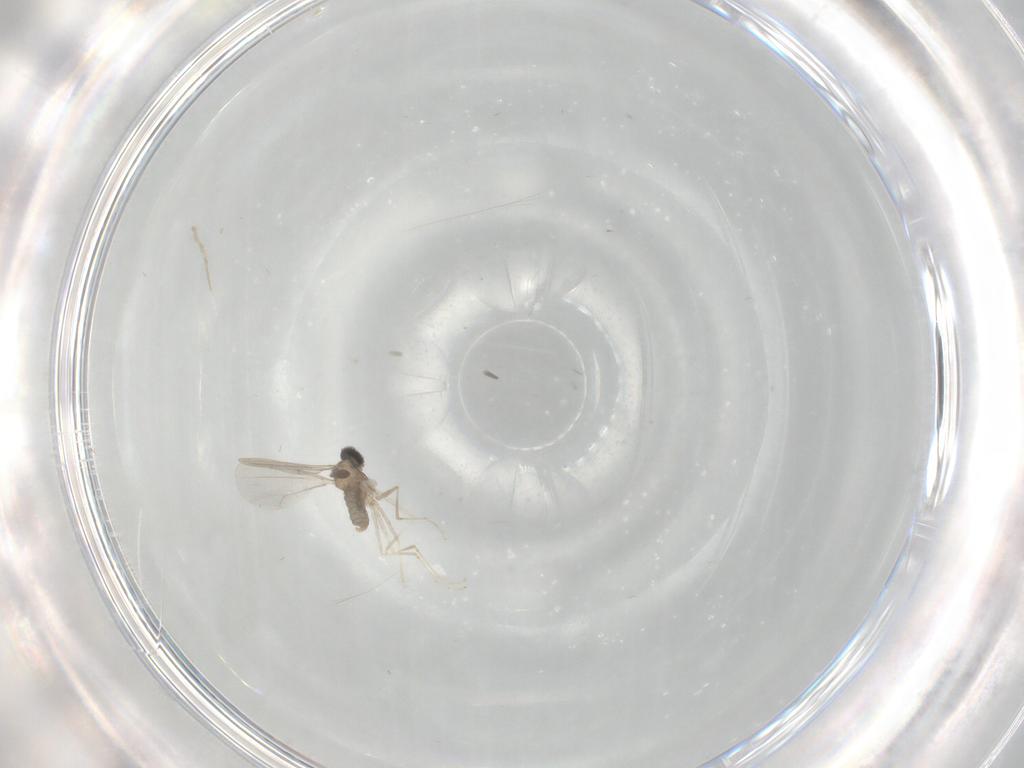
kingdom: Animalia
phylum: Arthropoda
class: Insecta
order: Diptera
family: Cecidomyiidae
